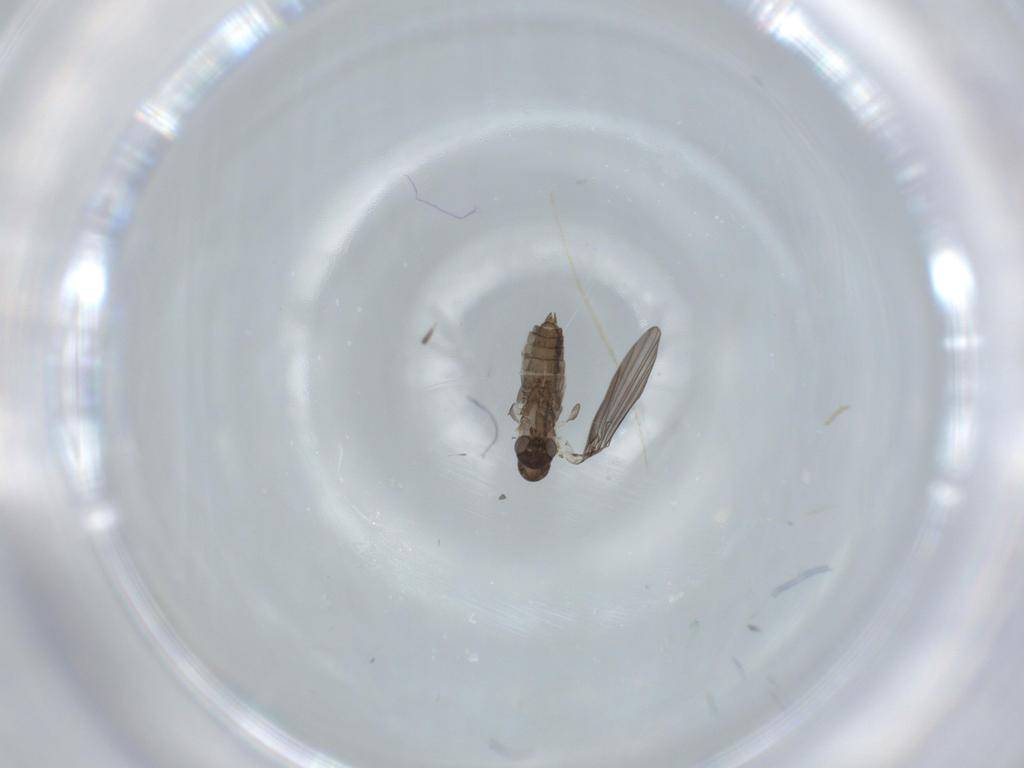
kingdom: Animalia
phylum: Arthropoda
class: Insecta
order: Diptera
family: Psychodidae
